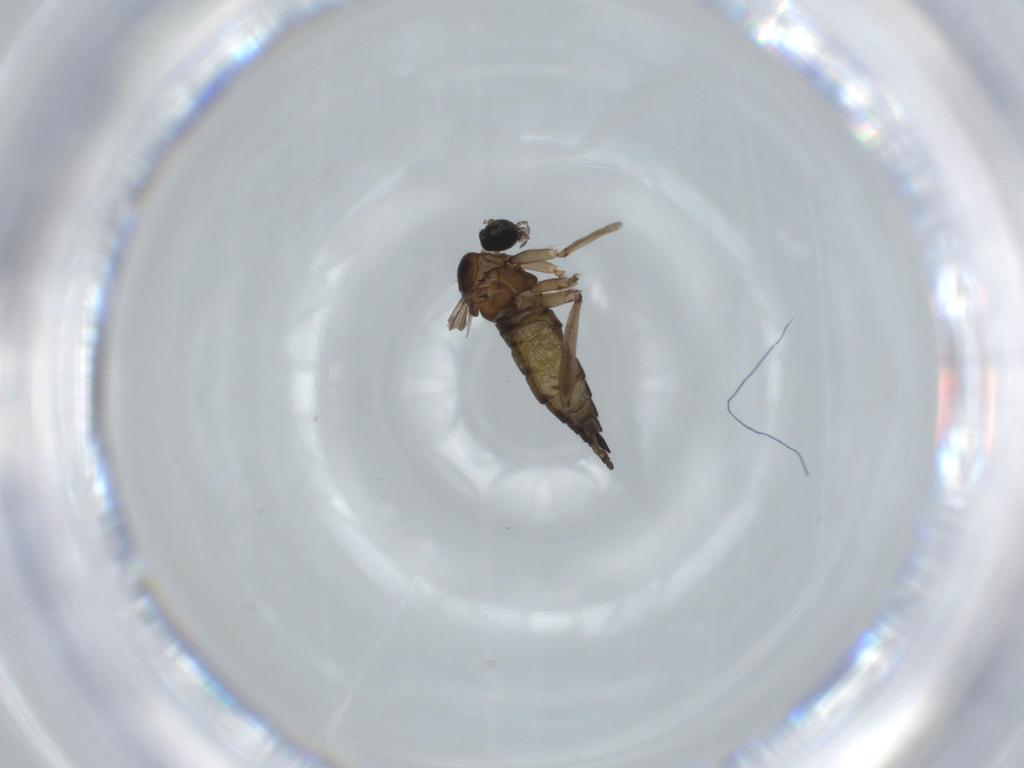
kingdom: Animalia
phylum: Arthropoda
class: Insecta
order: Diptera
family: Sciaridae
